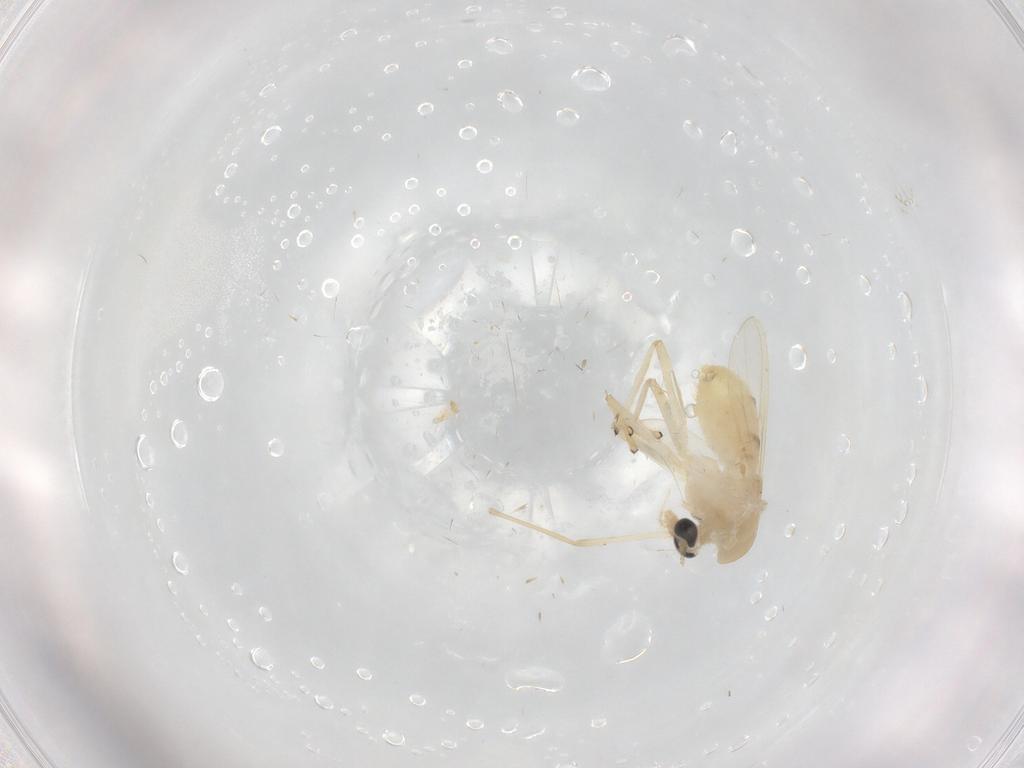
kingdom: Animalia
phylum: Arthropoda
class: Insecta
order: Diptera
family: Chironomidae
